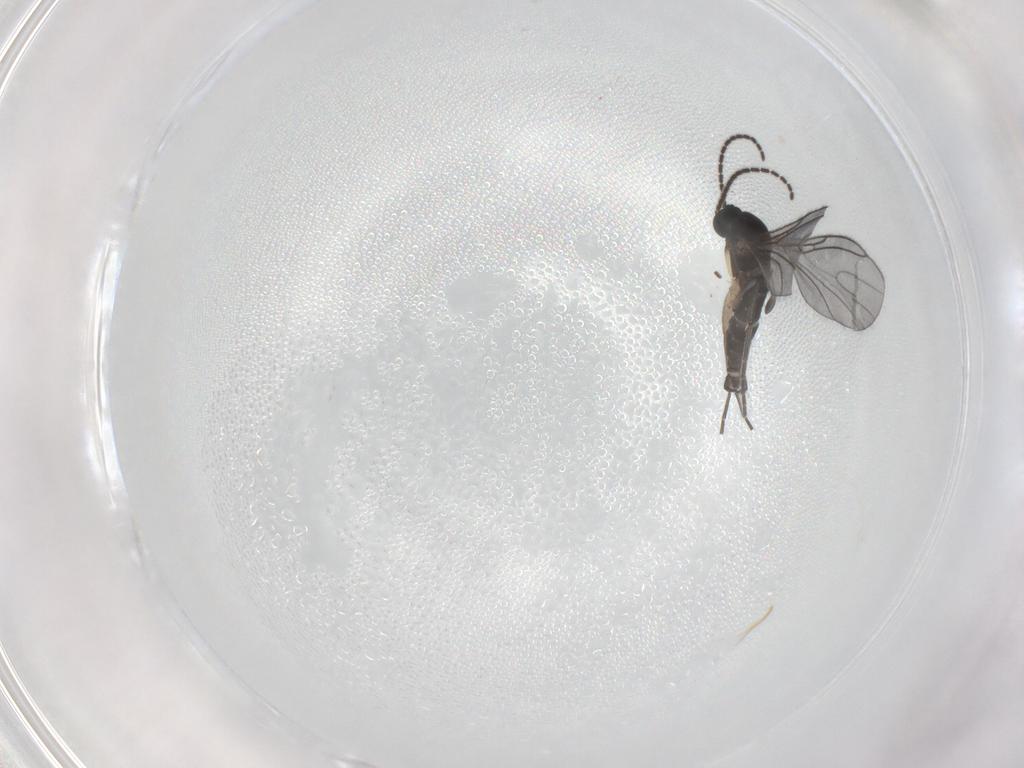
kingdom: Animalia
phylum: Arthropoda
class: Insecta
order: Diptera
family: Sciaridae
